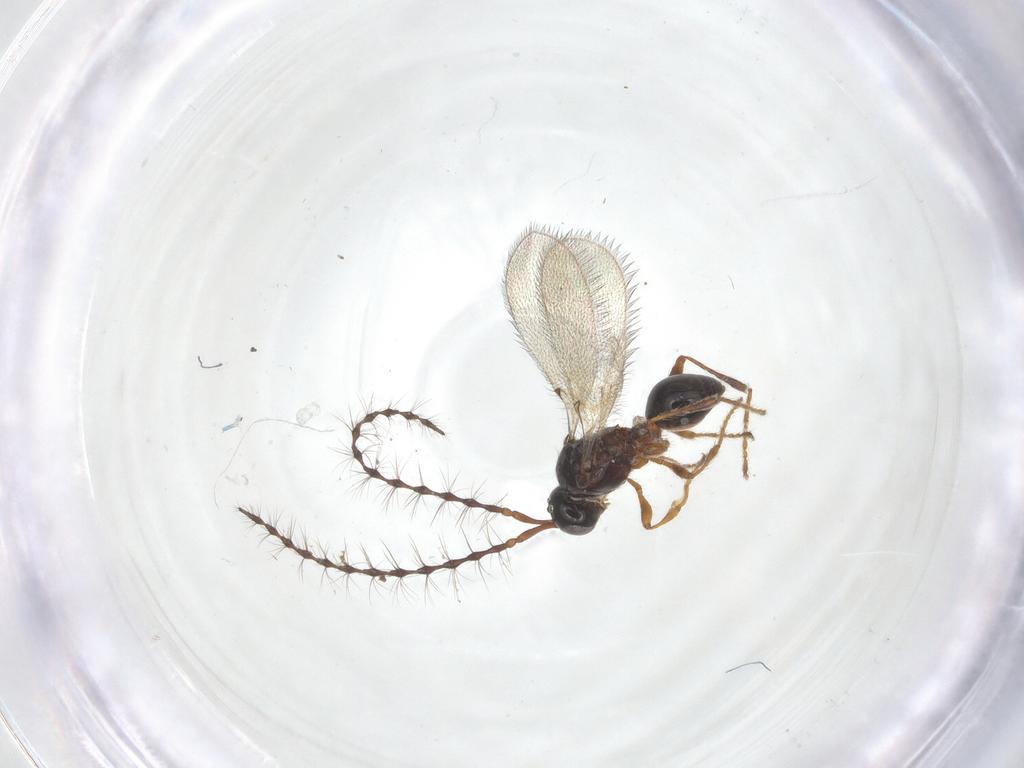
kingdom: Animalia
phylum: Arthropoda
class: Insecta
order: Hymenoptera
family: Diapriidae
